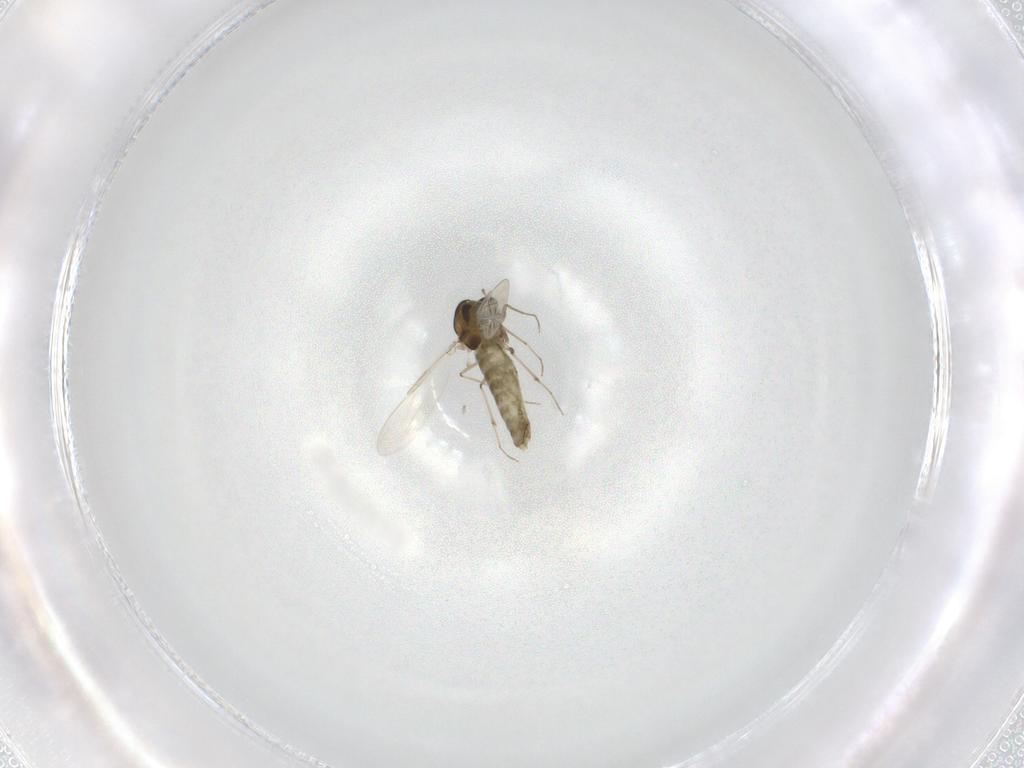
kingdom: Animalia
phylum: Arthropoda
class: Insecta
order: Diptera
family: Chironomidae
